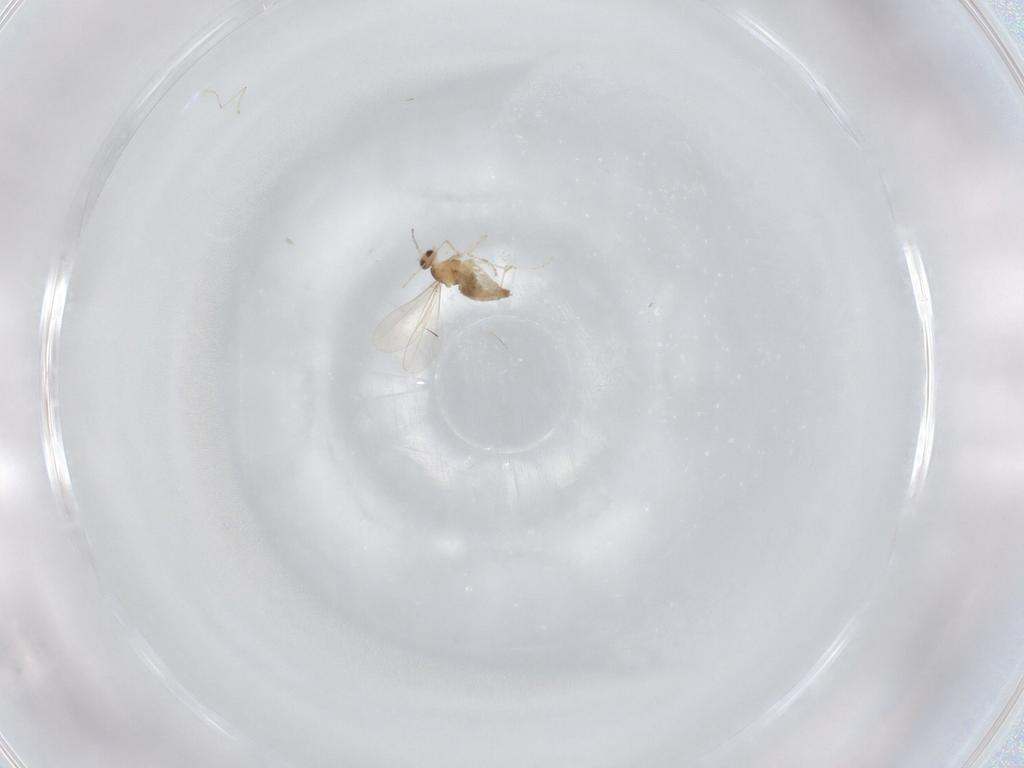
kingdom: Animalia
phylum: Arthropoda
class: Insecta
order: Diptera
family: Cecidomyiidae
